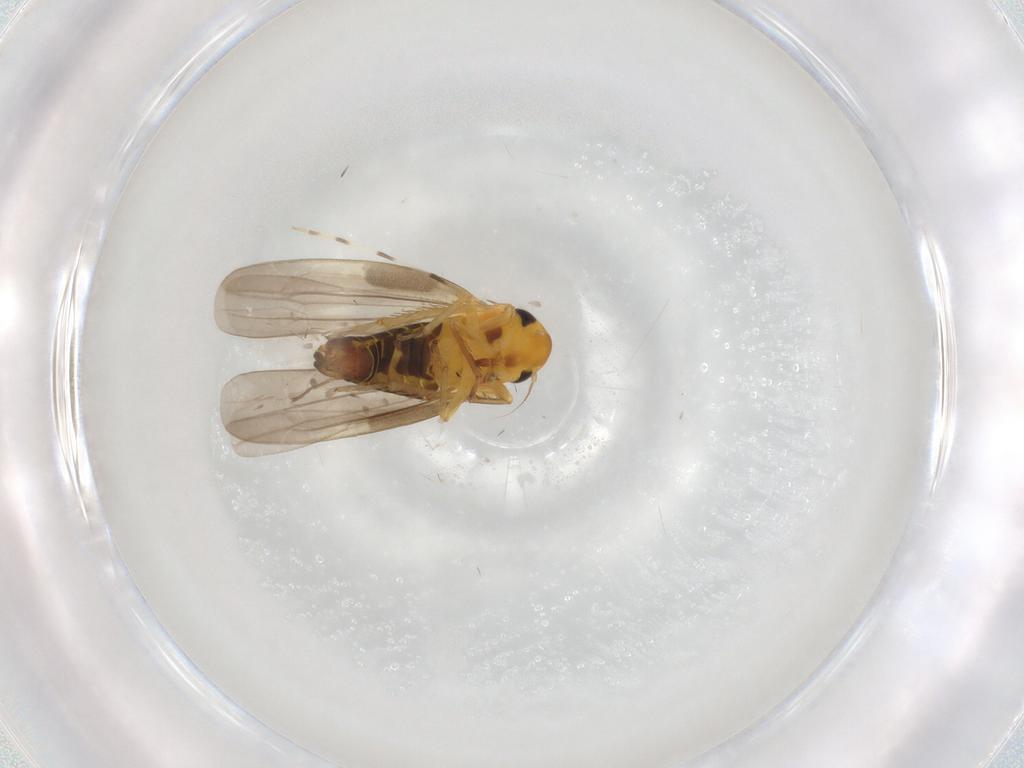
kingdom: Animalia
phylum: Arthropoda
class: Insecta
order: Hemiptera
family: Cicadellidae
